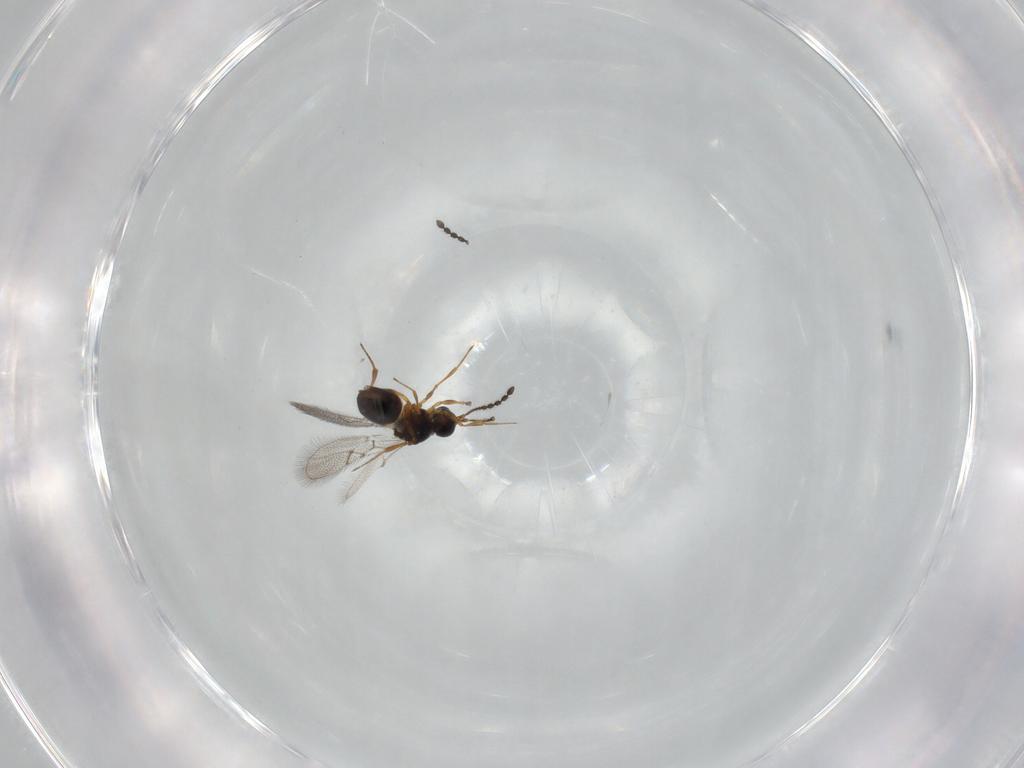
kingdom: Animalia
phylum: Arthropoda
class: Insecta
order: Hymenoptera
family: Figitidae
